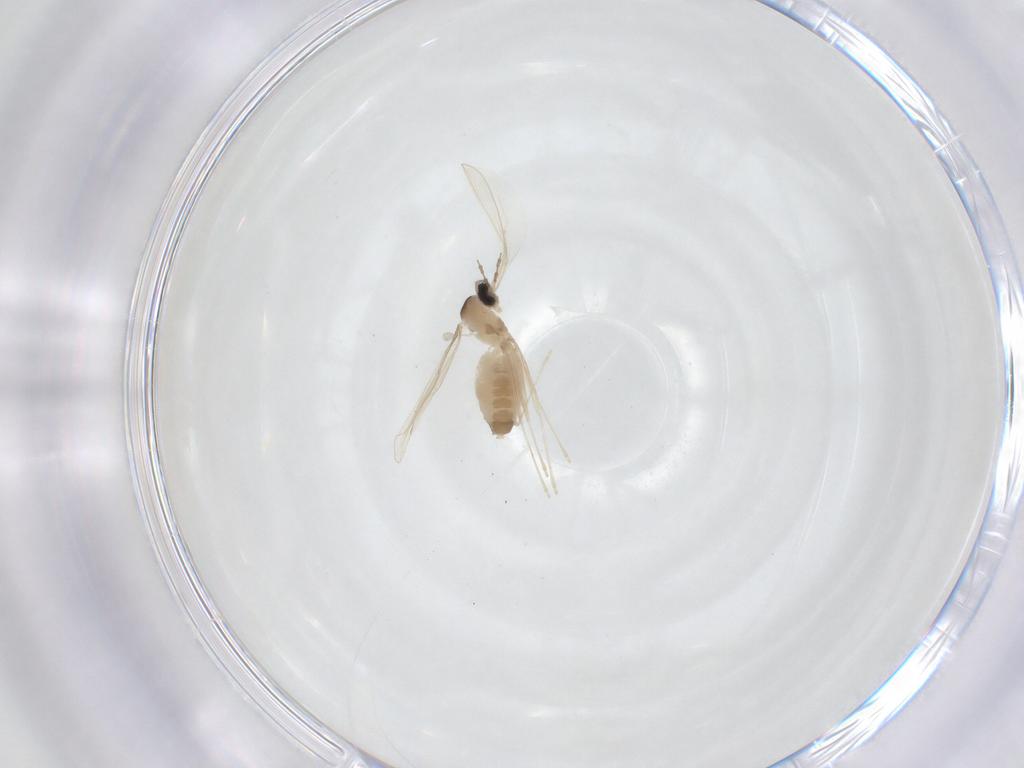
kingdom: Animalia
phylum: Arthropoda
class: Insecta
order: Diptera
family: Cecidomyiidae
